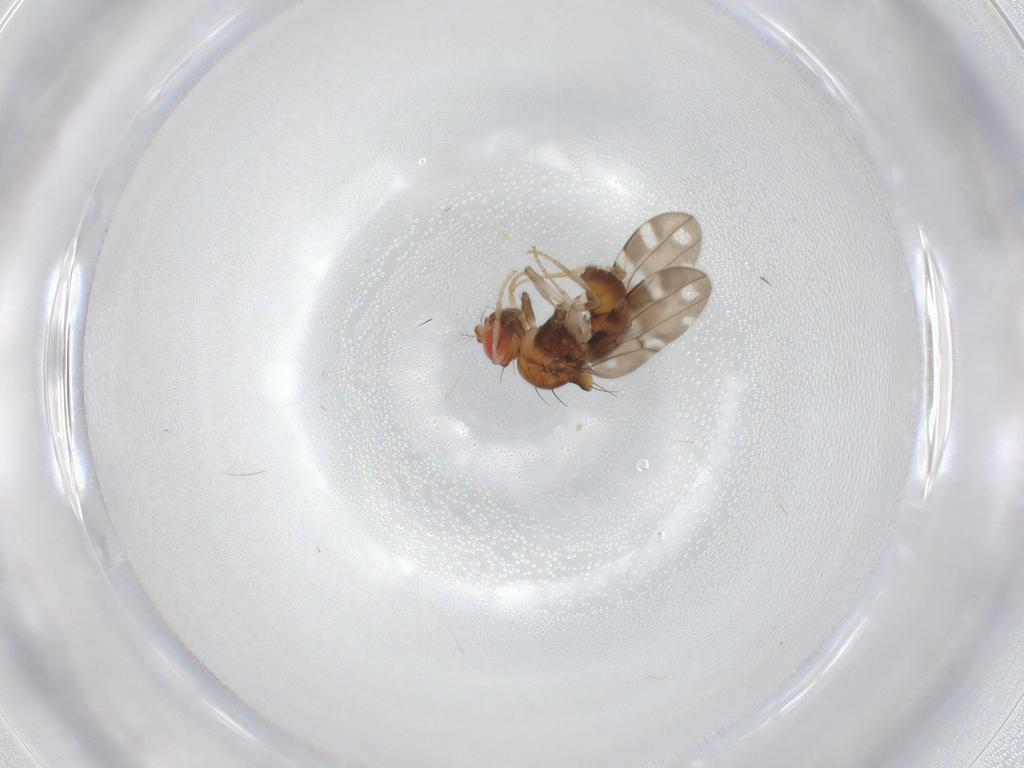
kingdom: Animalia
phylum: Arthropoda
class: Insecta
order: Diptera
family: Drosophilidae
